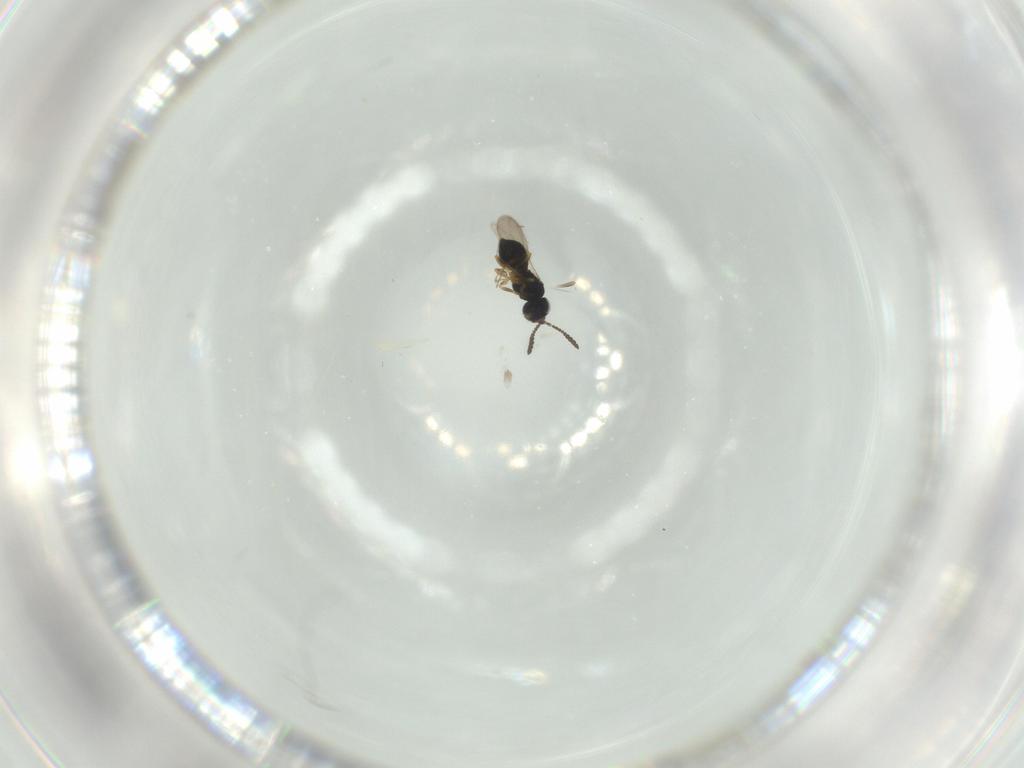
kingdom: Animalia
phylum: Arthropoda
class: Insecta
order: Hymenoptera
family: Scelionidae
